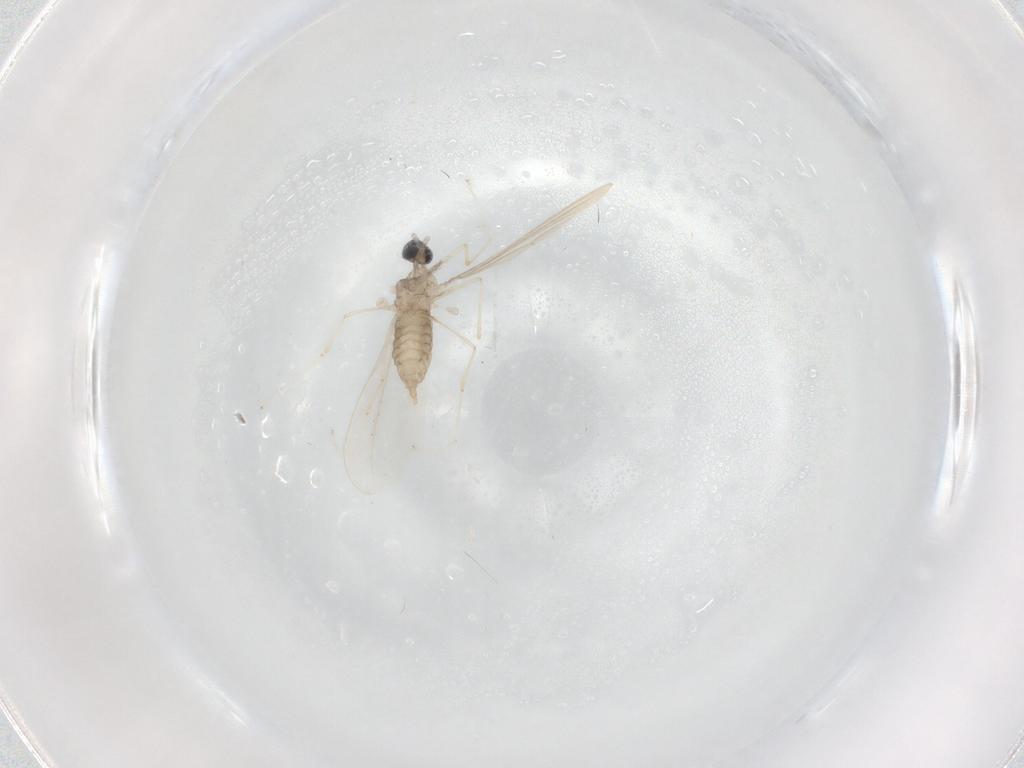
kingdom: Animalia
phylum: Arthropoda
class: Insecta
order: Diptera
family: Cecidomyiidae
